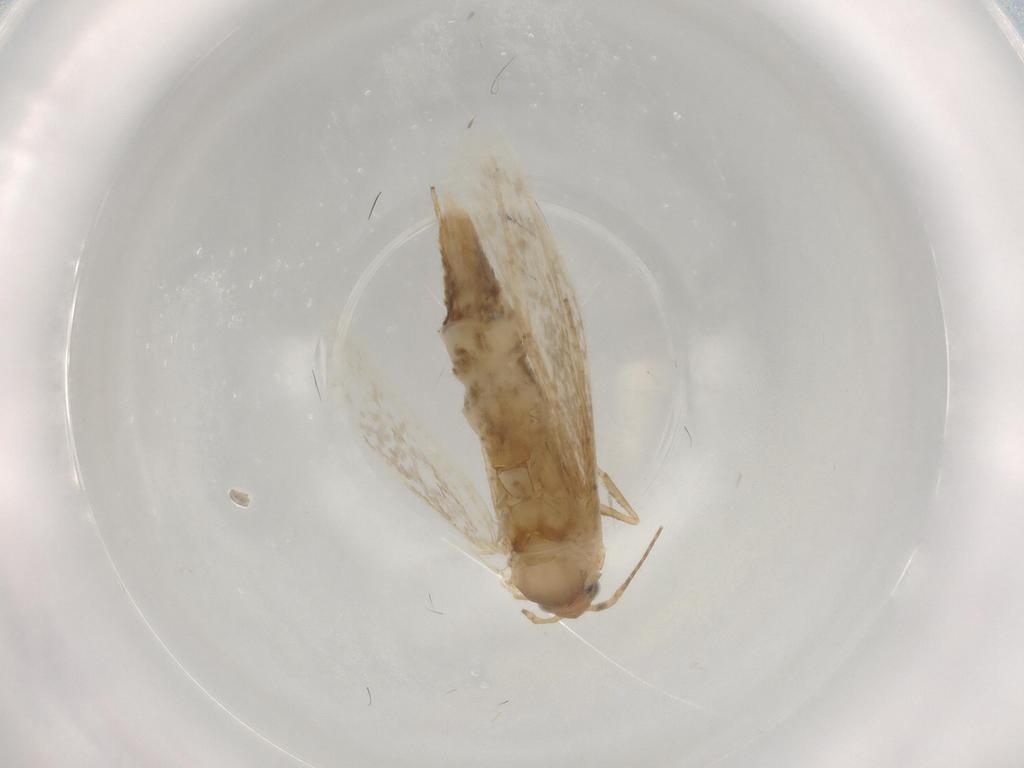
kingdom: Animalia
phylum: Arthropoda
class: Insecta
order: Lepidoptera
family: Argyresthiidae
